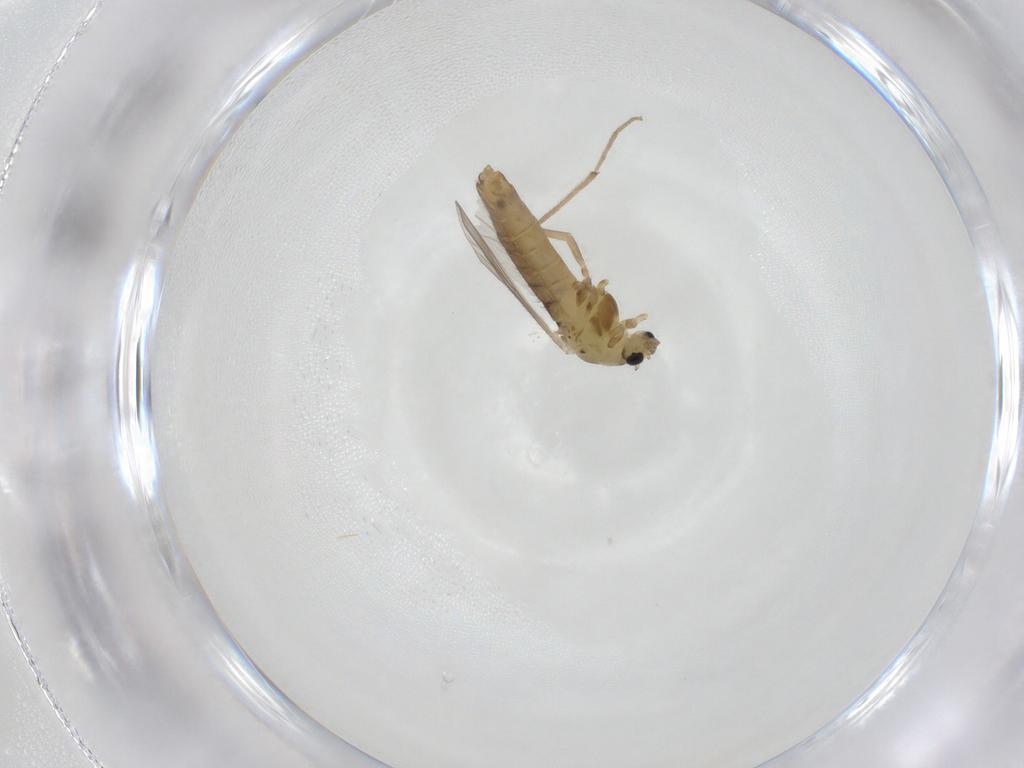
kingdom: Animalia
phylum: Arthropoda
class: Insecta
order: Diptera
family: Chironomidae
